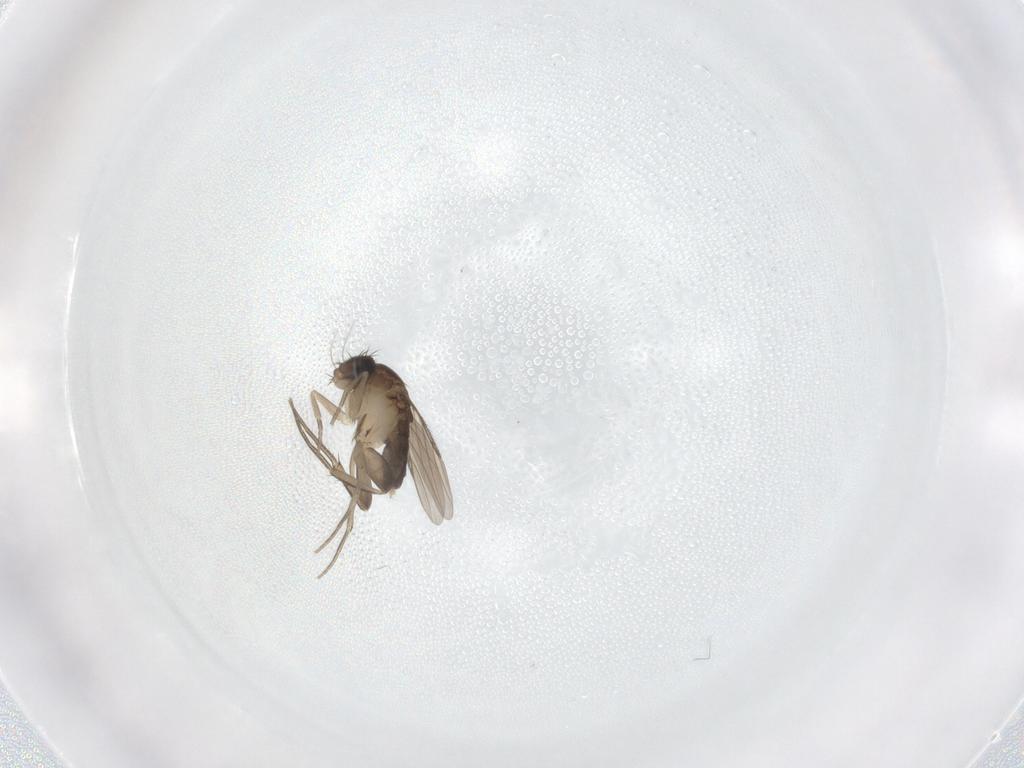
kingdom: Animalia
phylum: Arthropoda
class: Insecta
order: Diptera
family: Phoridae
